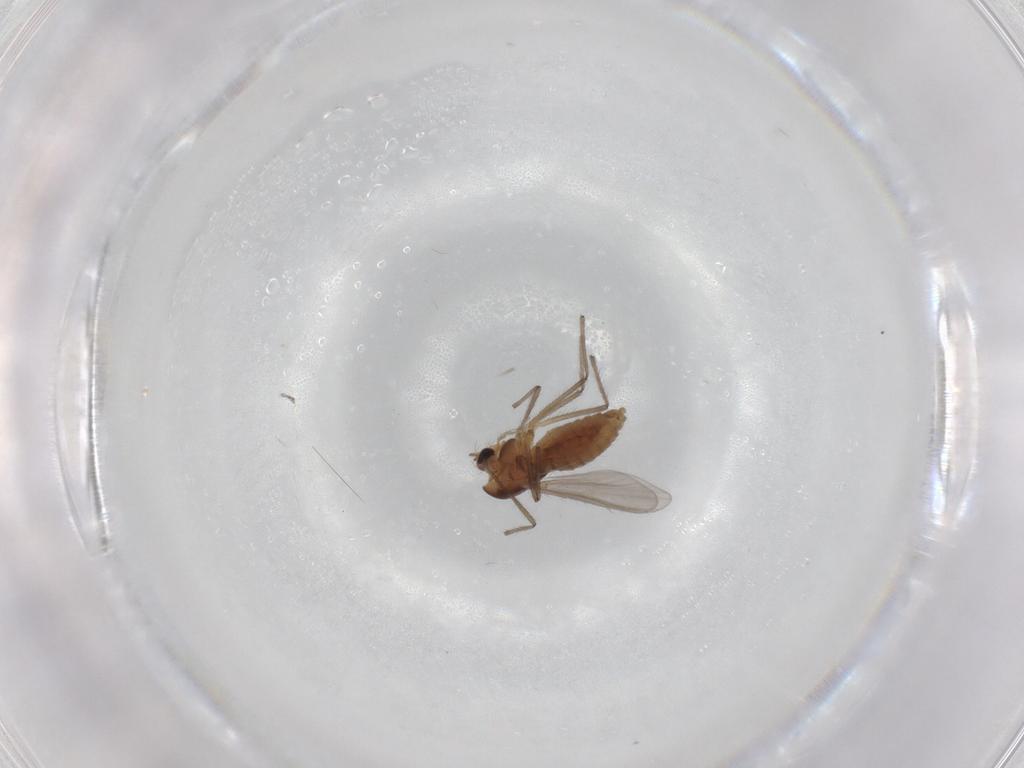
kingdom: Animalia
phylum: Arthropoda
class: Insecta
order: Diptera
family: Chironomidae
